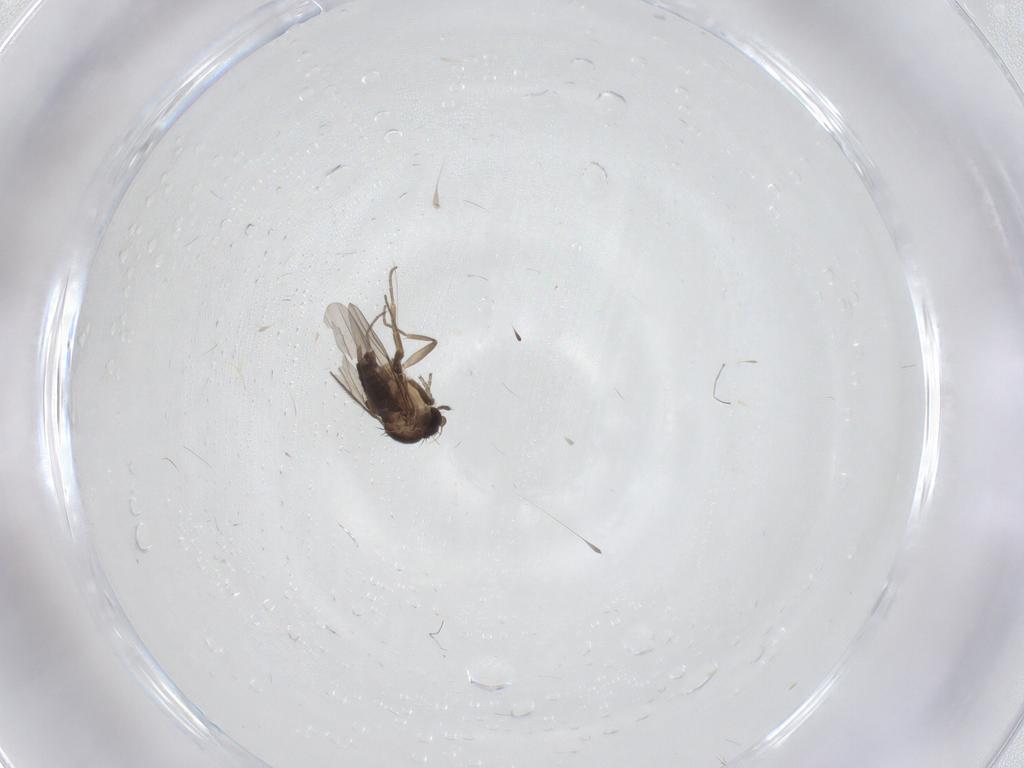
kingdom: Animalia
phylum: Arthropoda
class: Insecta
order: Diptera
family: Phoridae
